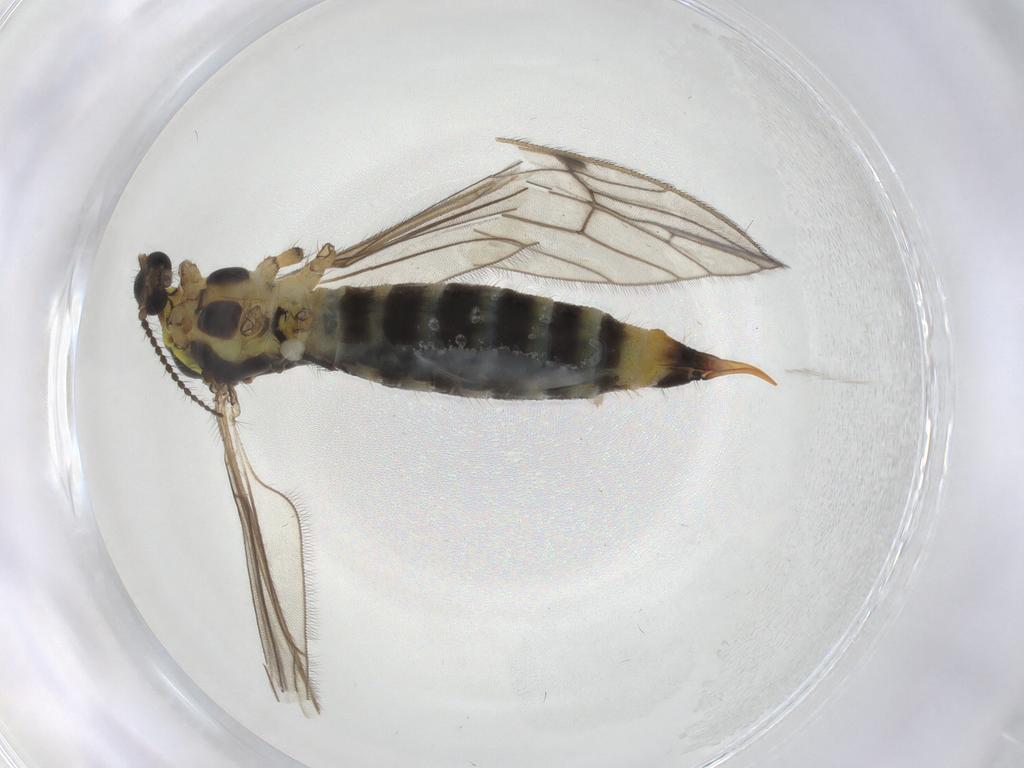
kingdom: Animalia
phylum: Arthropoda
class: Insecta
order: Diptera
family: Limoniidae
